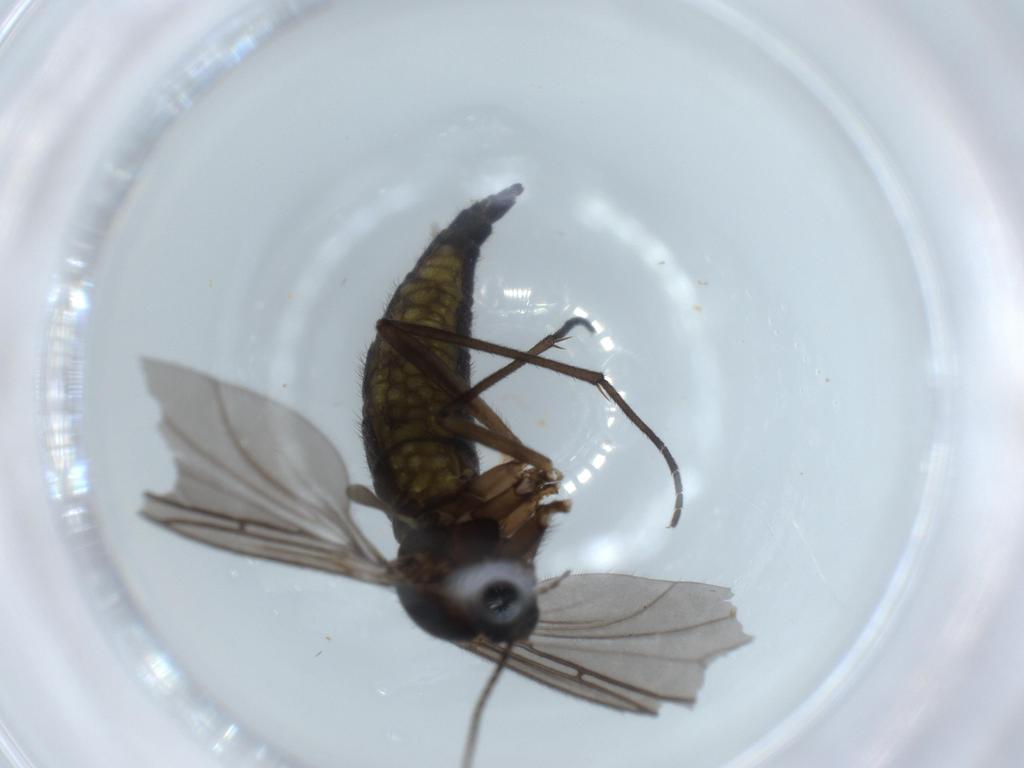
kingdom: Animalia
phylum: Arthropoda
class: Insecta
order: Diptera
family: Sciaridae
